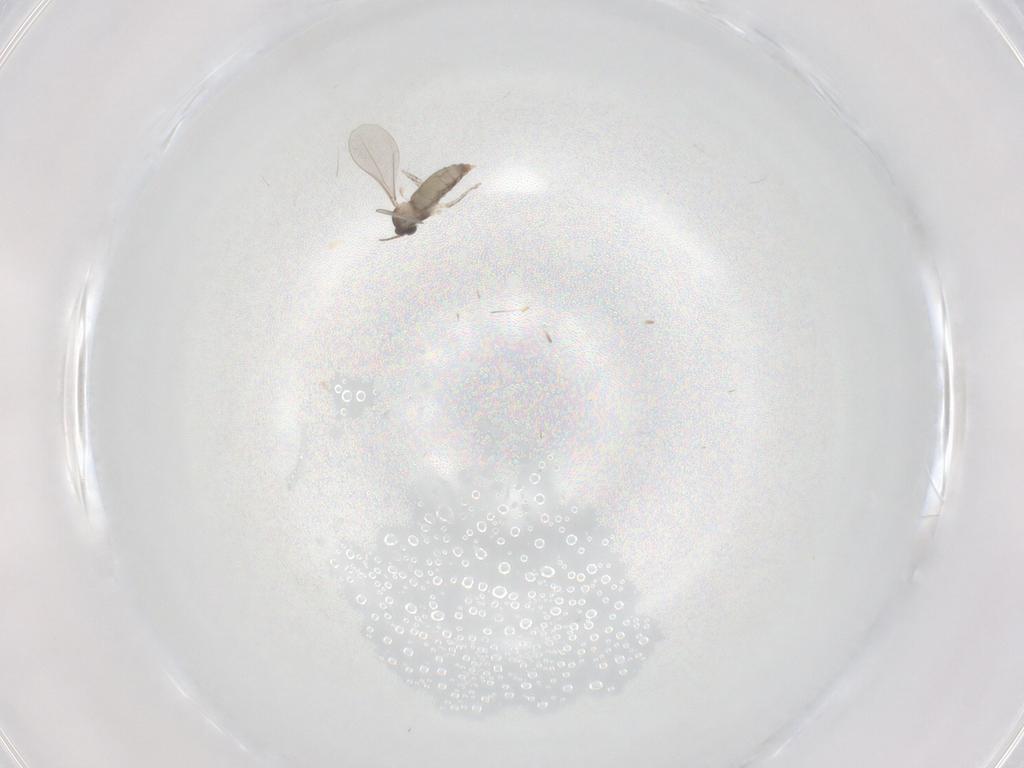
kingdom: Animalia
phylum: Arthropoda
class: Insecta
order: Diptera
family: Cecidomyiidae
